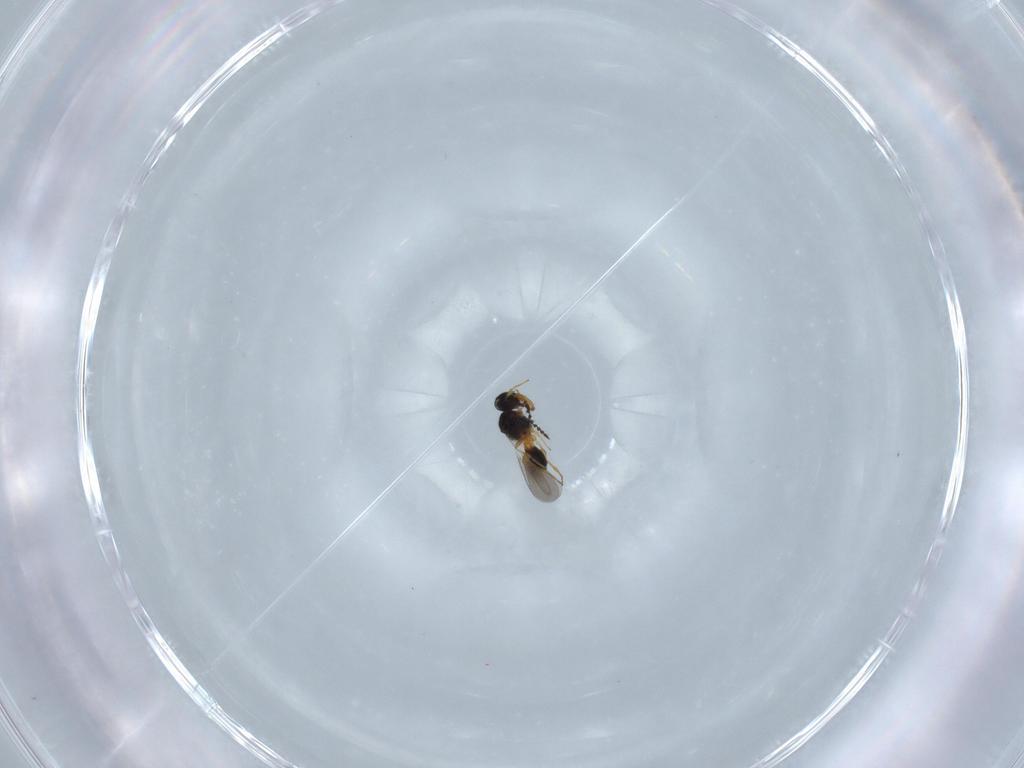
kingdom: Animalia
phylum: Arthropoda
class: Insecta
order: Hymenoptera
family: Platygastridae
